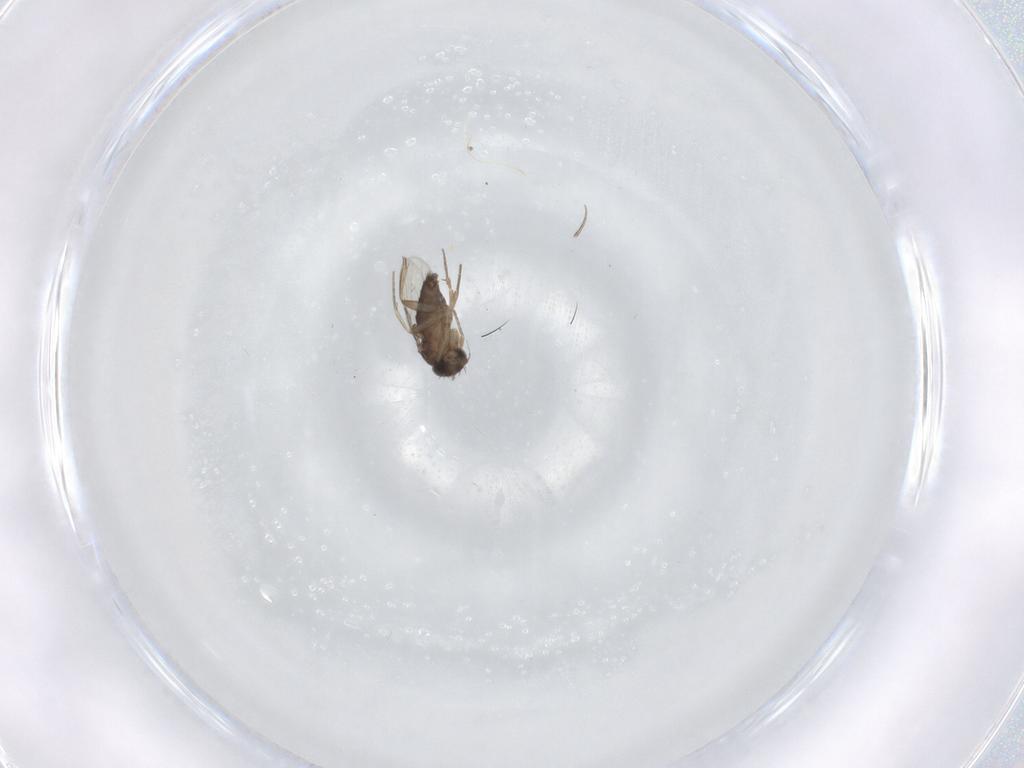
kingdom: Animalia
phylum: Arthropoda
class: Insecta
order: Diptera
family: Phoridae
